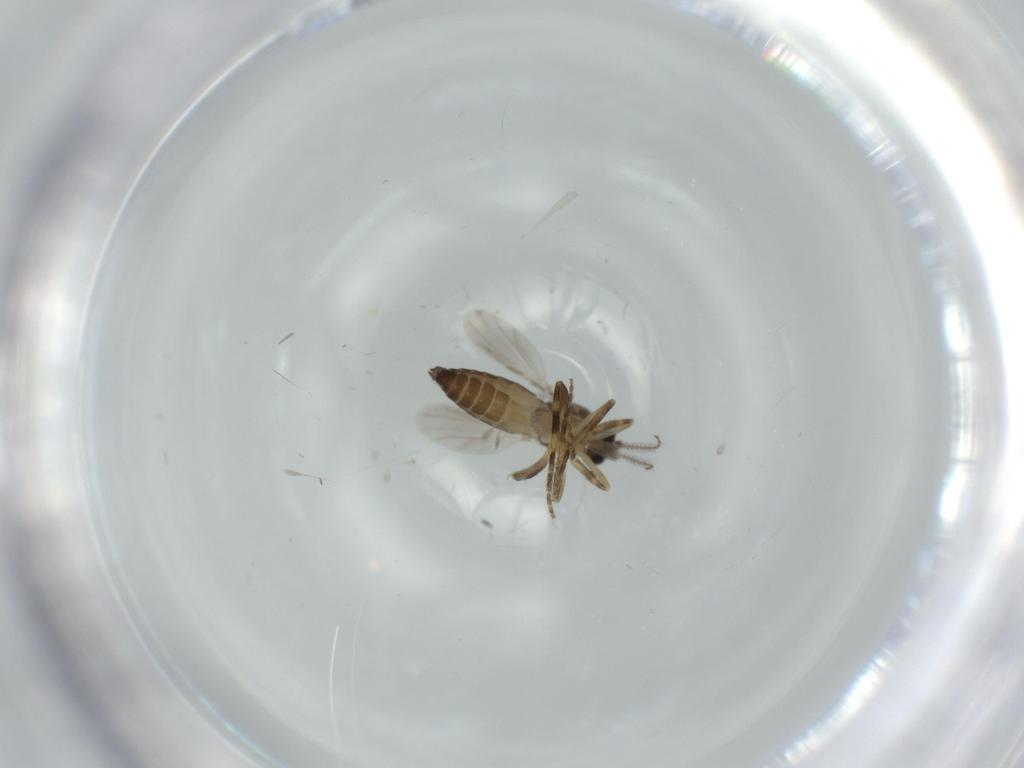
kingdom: Animalia
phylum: Arthropoda
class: Insecta
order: Diptera
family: Ceratopogonidae
